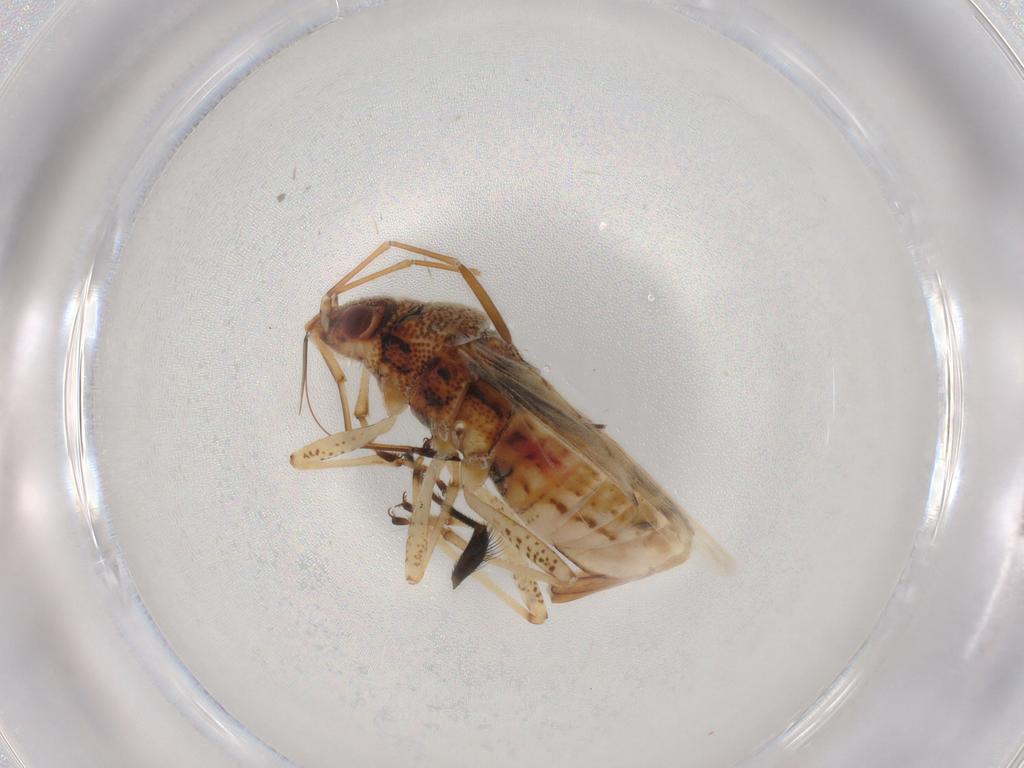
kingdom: Animalia
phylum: Arthropoda
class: Insecta
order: Hemiptera
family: Lygaeidae
